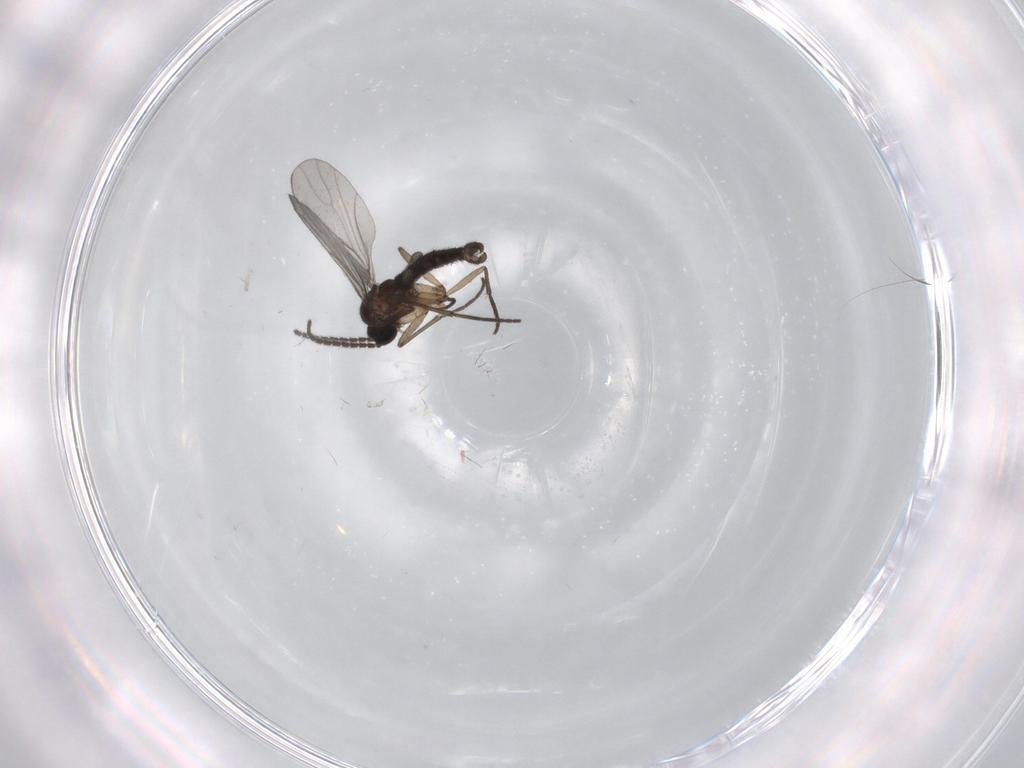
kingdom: Animalia
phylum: Arthropoda
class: Insecta
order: Diptera
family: Sciaridae
